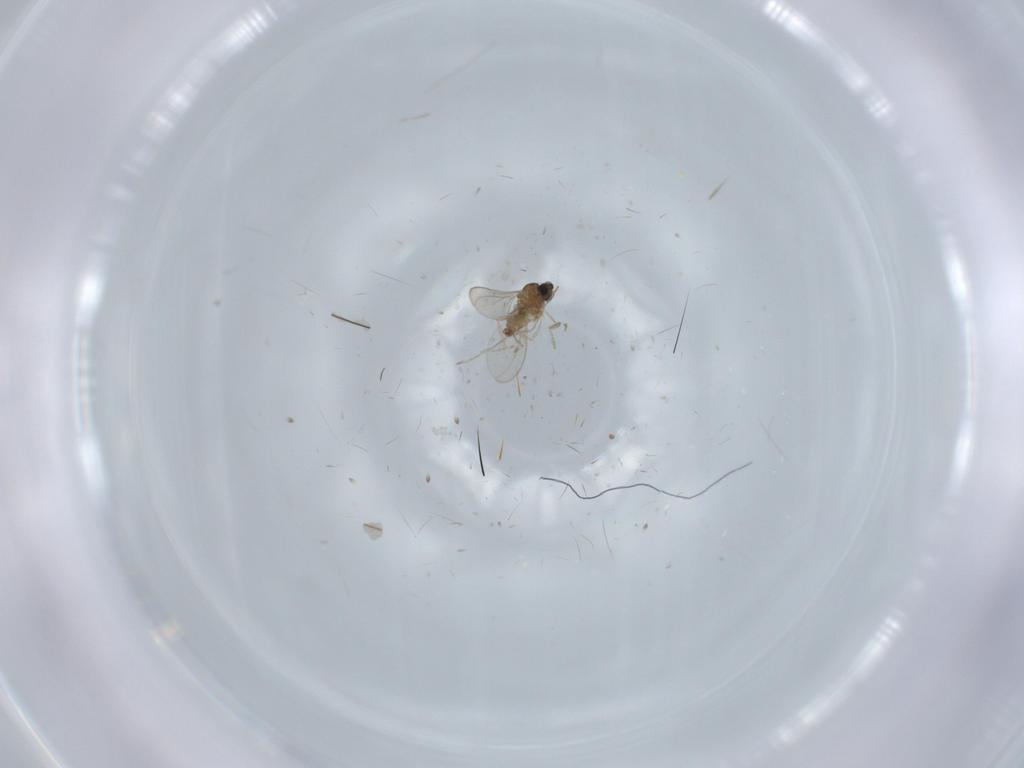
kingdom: Animalia
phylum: Arthropoda
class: Insecta
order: Diptera
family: Cecidomyiidae
